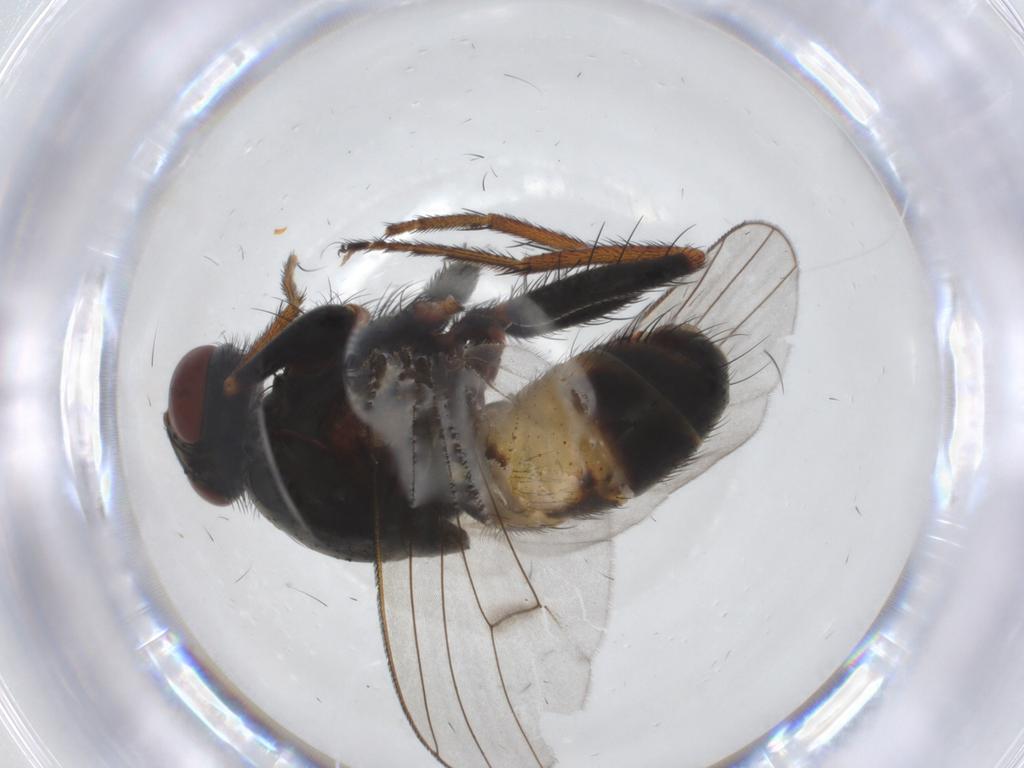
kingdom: Animalia
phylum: Arthropoda
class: Insecta
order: Diptera
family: Muscidae
